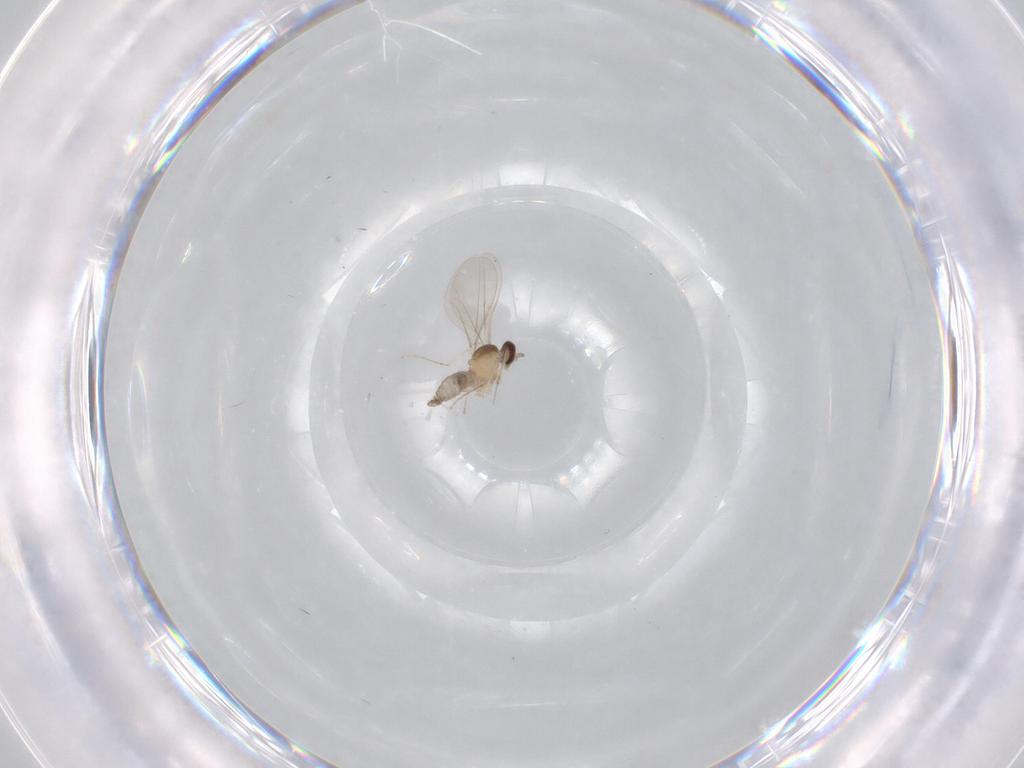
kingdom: Animalia
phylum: Arthropoda
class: Insecta
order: Diptera
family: Cecidomyiidae
